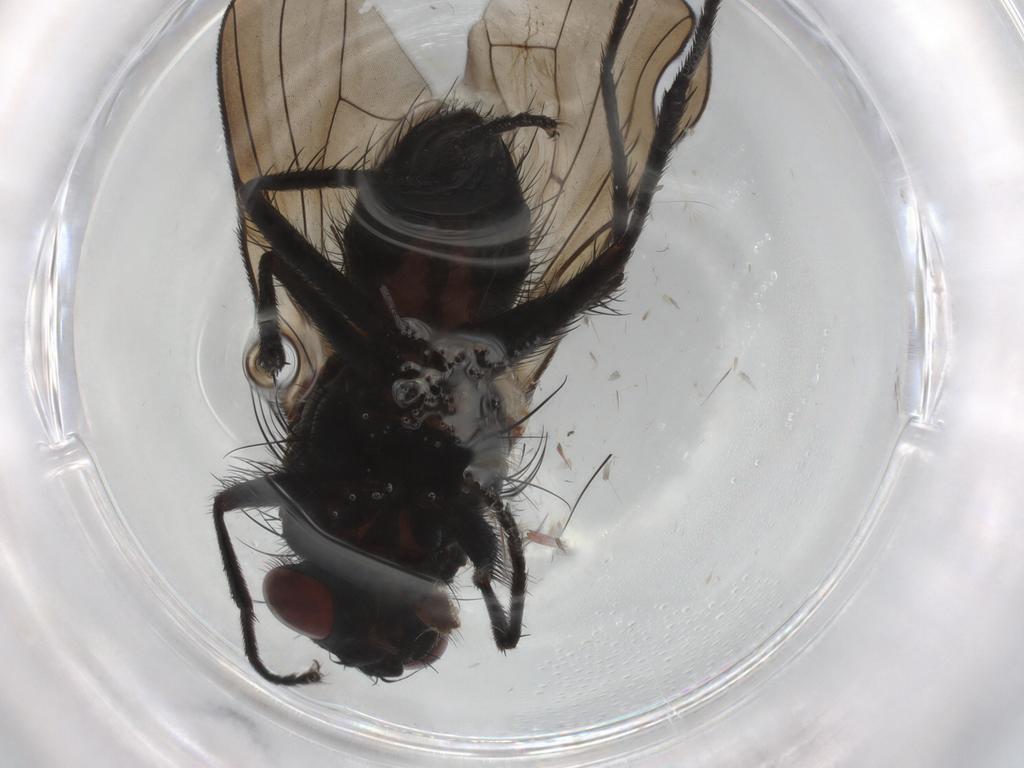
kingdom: Animalia
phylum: Arthropoda
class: Insecta
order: Diptera
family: Anthomyiidae
